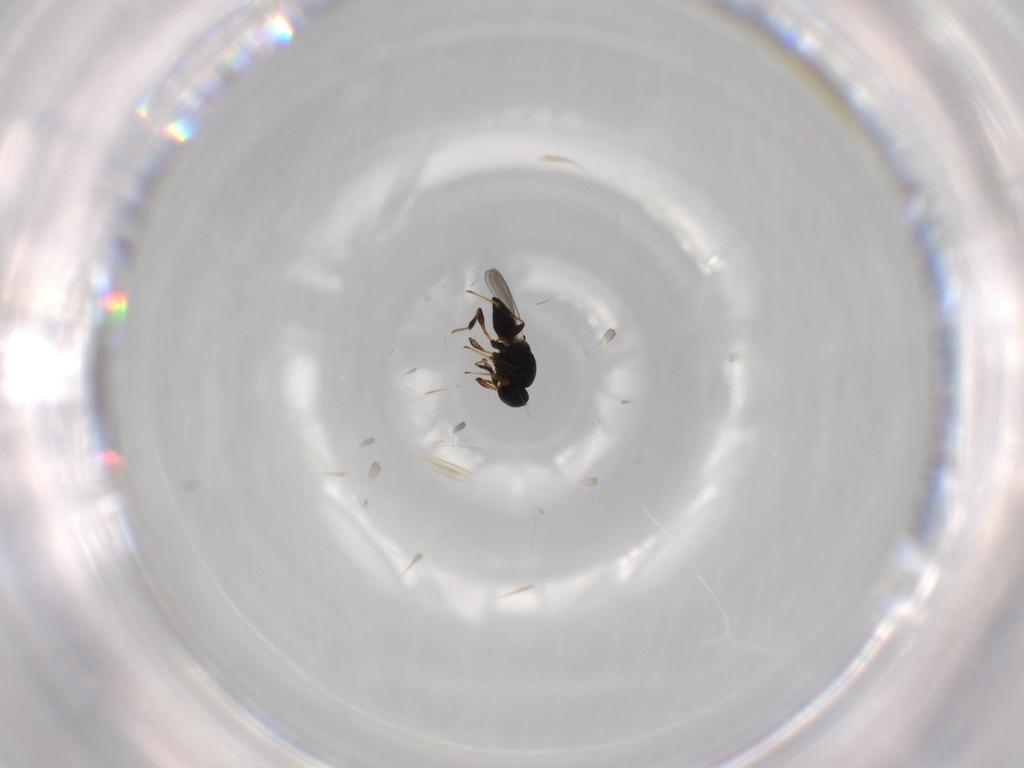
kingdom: Animalia
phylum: Arthropoda
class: Insecta
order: Hymenoptera
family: Platygastridae
